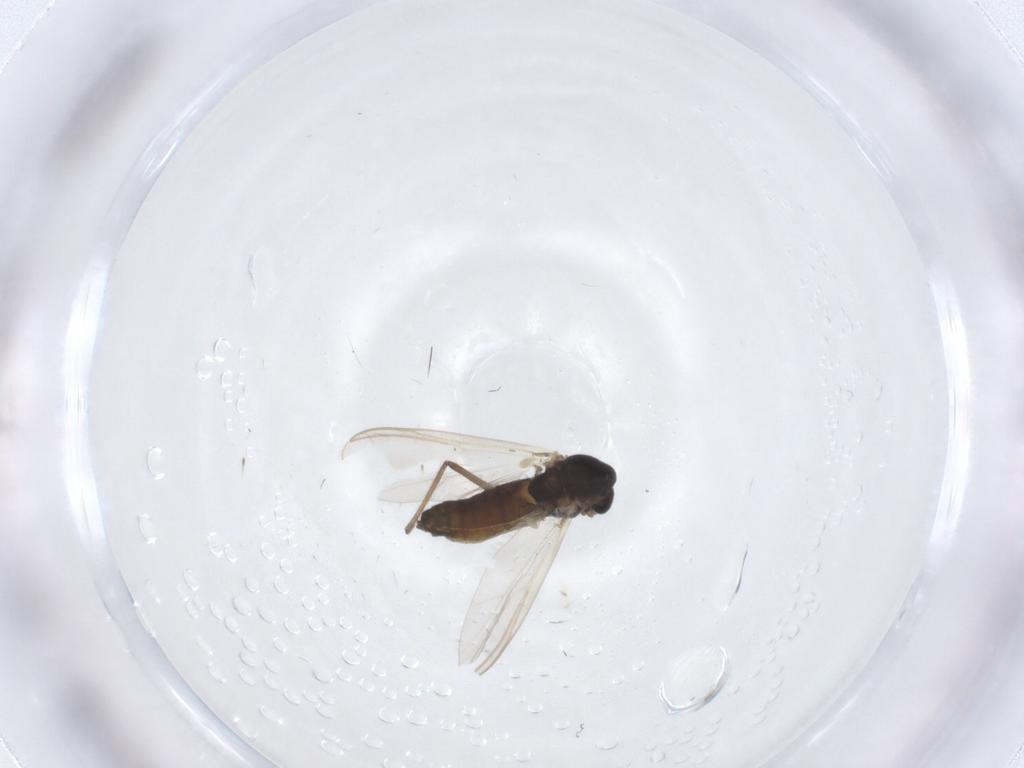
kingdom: Animalia
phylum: Arthropoda
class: Insecta
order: Diptera
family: Chironomidae
